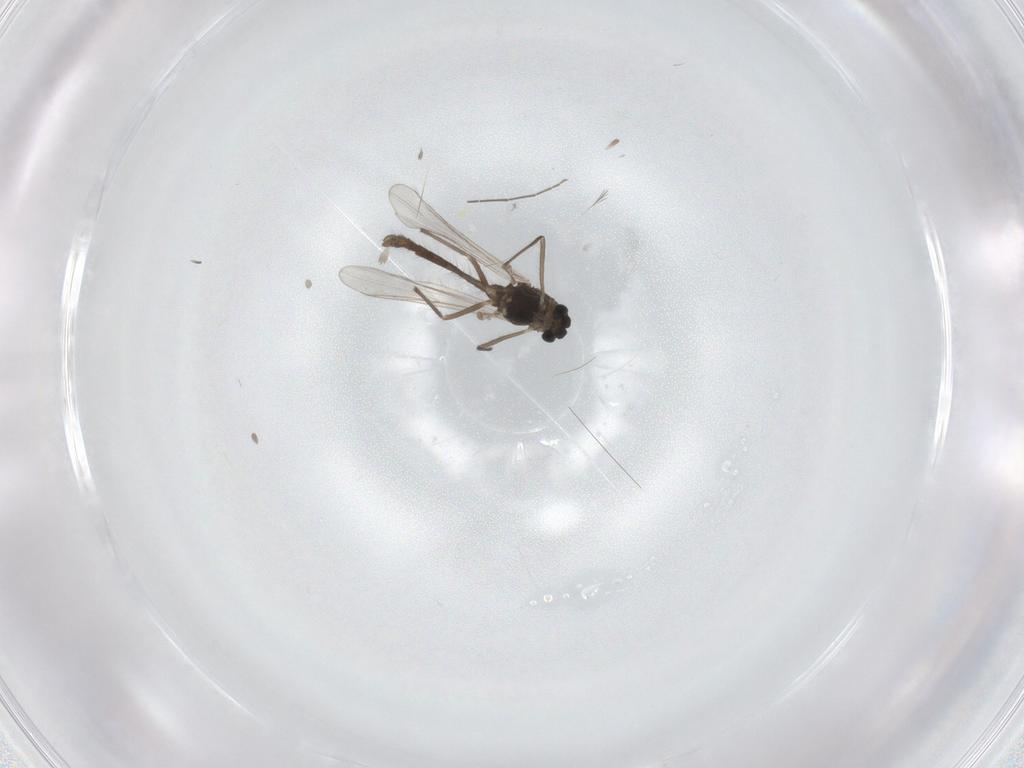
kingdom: Animalia
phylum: Arthropoda
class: Insecta
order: Diptera
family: Chironomidae
